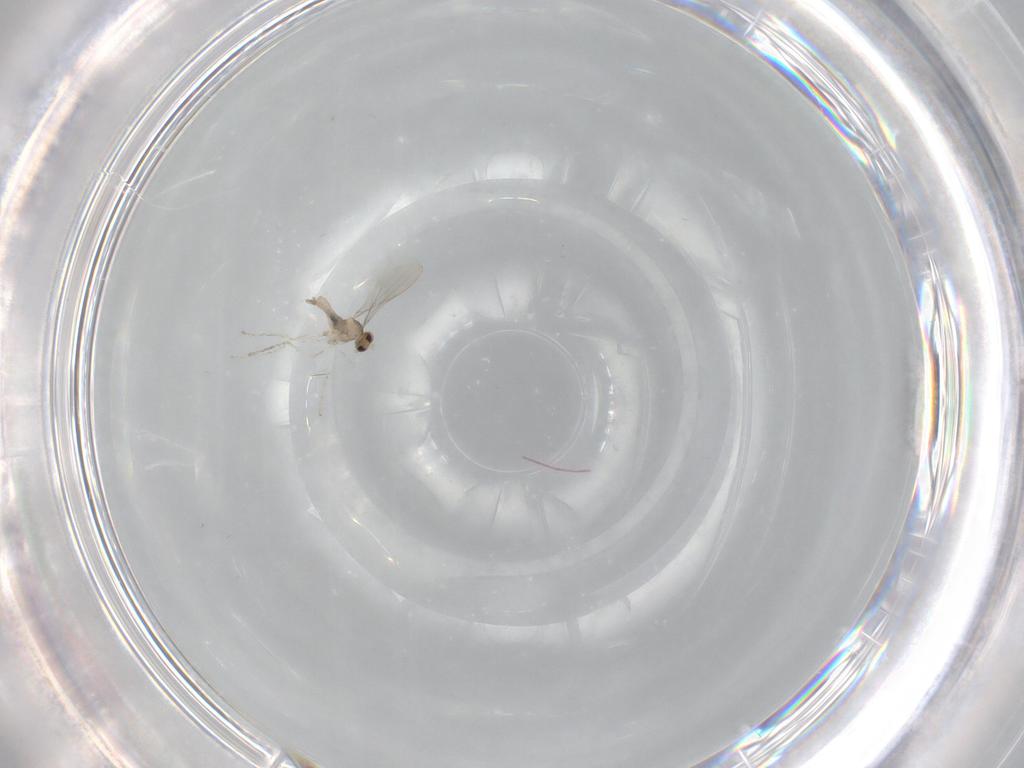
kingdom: Animalia
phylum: Arthropoda
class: Insecta
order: Diptera
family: Cecidomyiidae
